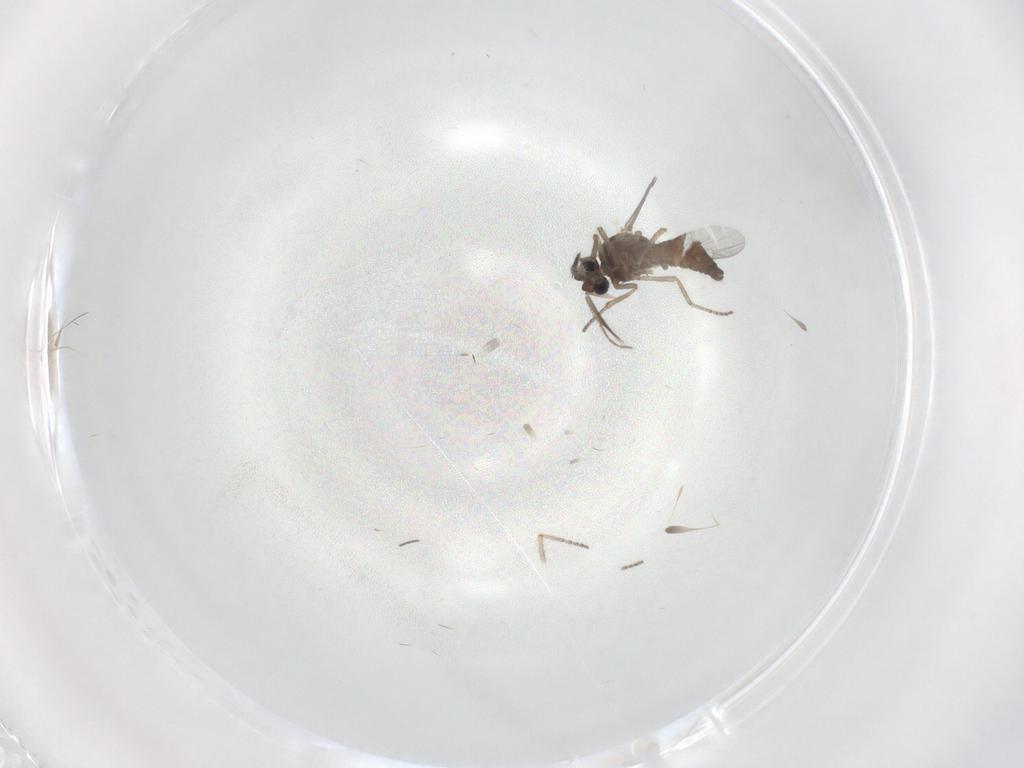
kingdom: Animalia
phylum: Arthropoda
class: Insecta
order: Diptera
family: Ceratopogonidae
